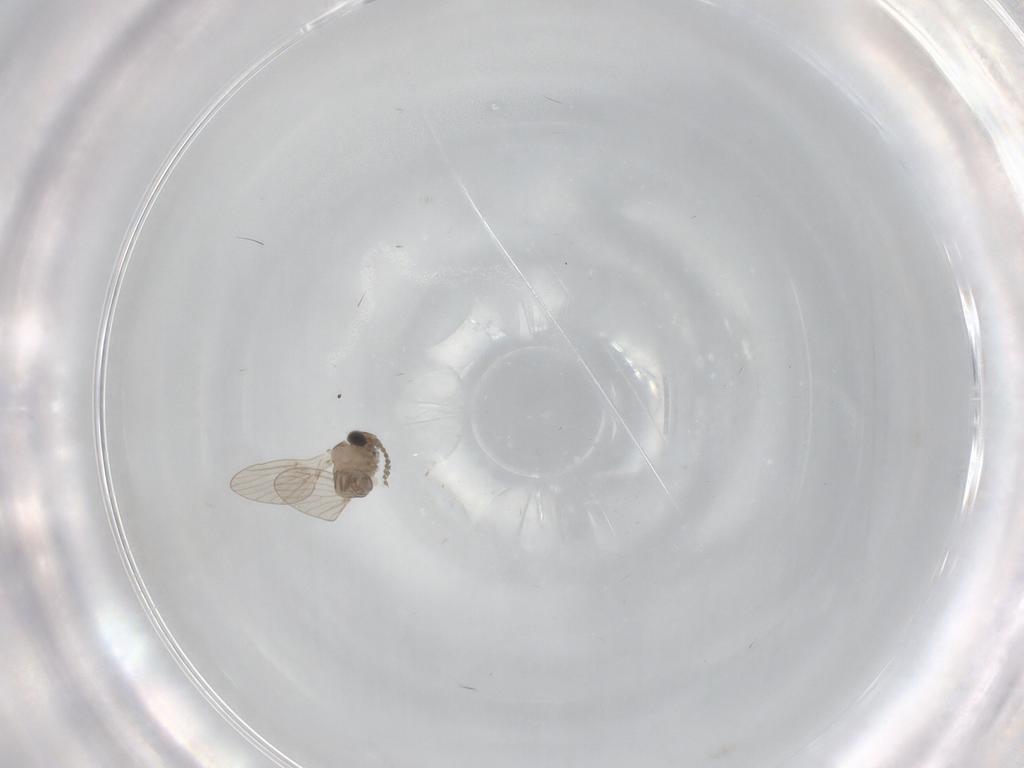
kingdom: Animalia
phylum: Arthropoda
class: Insecta
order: Diptera
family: Psychodidae
